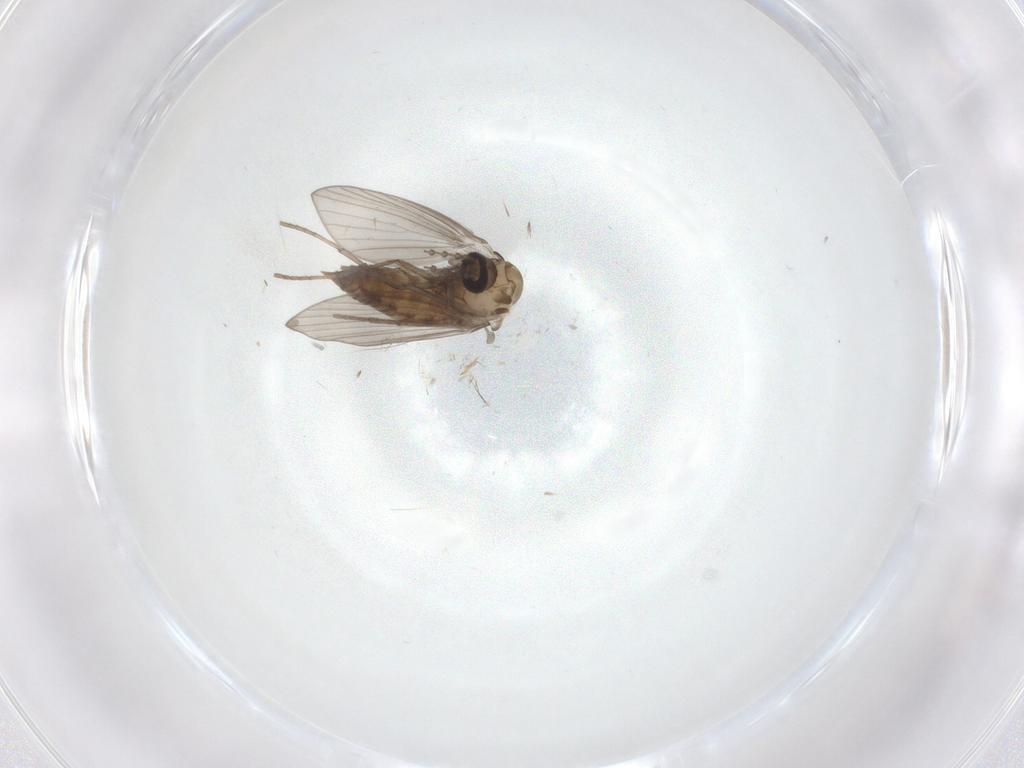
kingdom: Animalia
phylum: Arthropoda
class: Insecta
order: Diptera
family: Psychodidae
